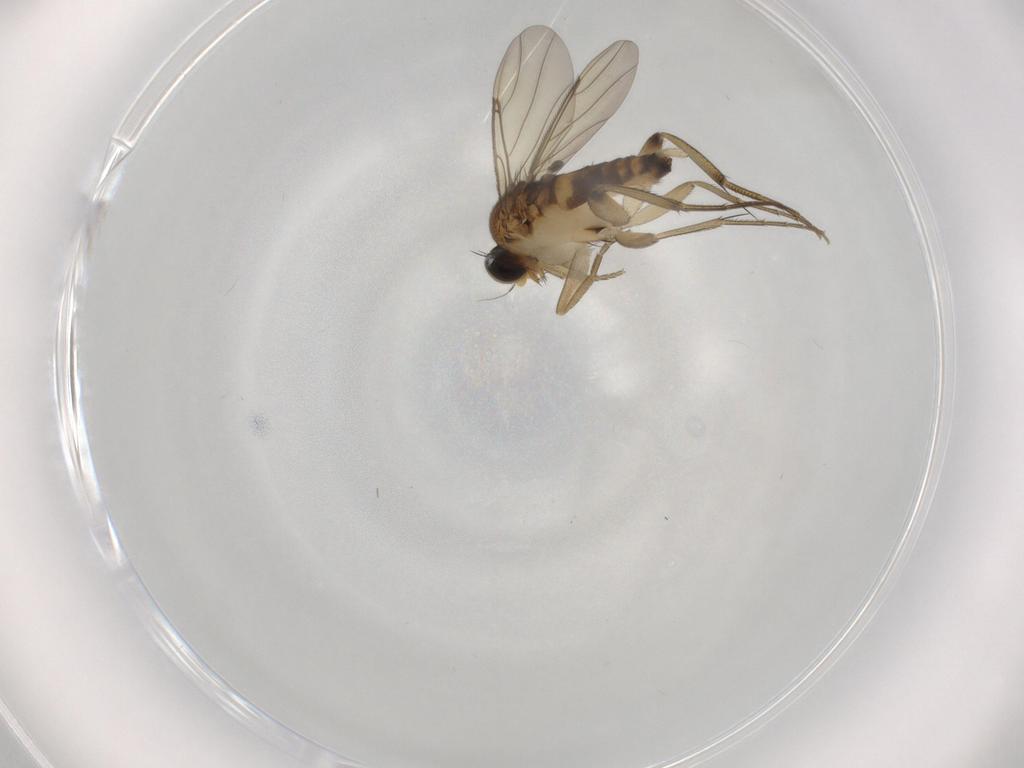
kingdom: Animalia
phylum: Arthropoda
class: Insecta
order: Diptera
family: Phoridae
